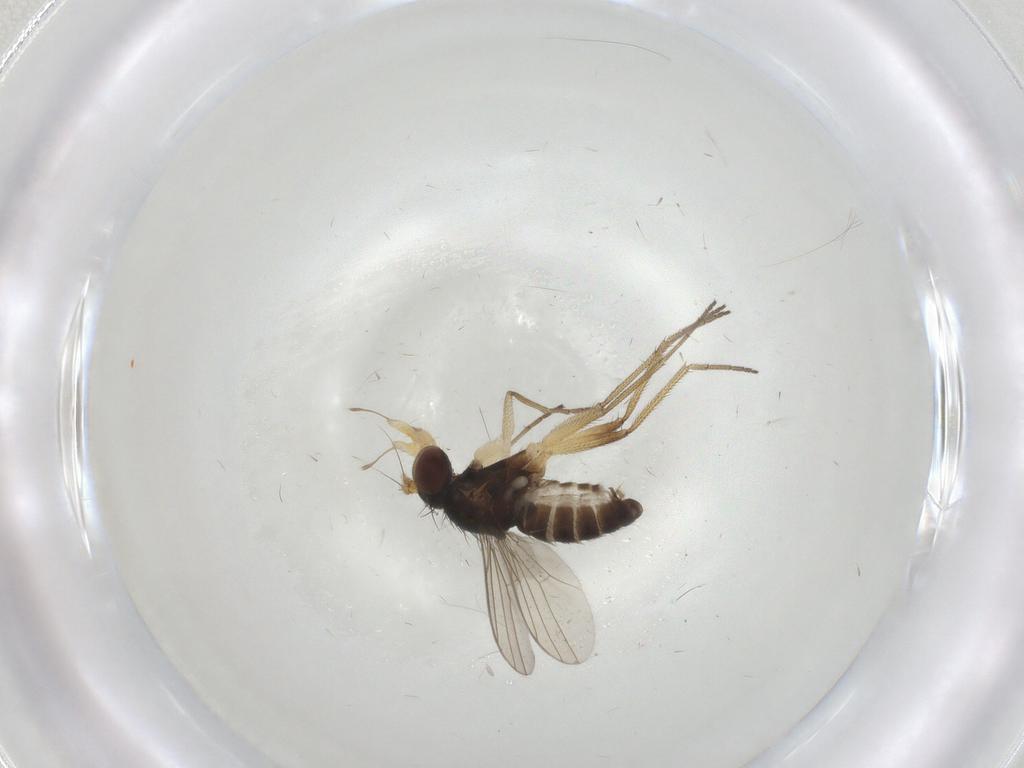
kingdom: Animalia
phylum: Arthropoda
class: Insecta
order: Diptera
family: Dolichopodidae
